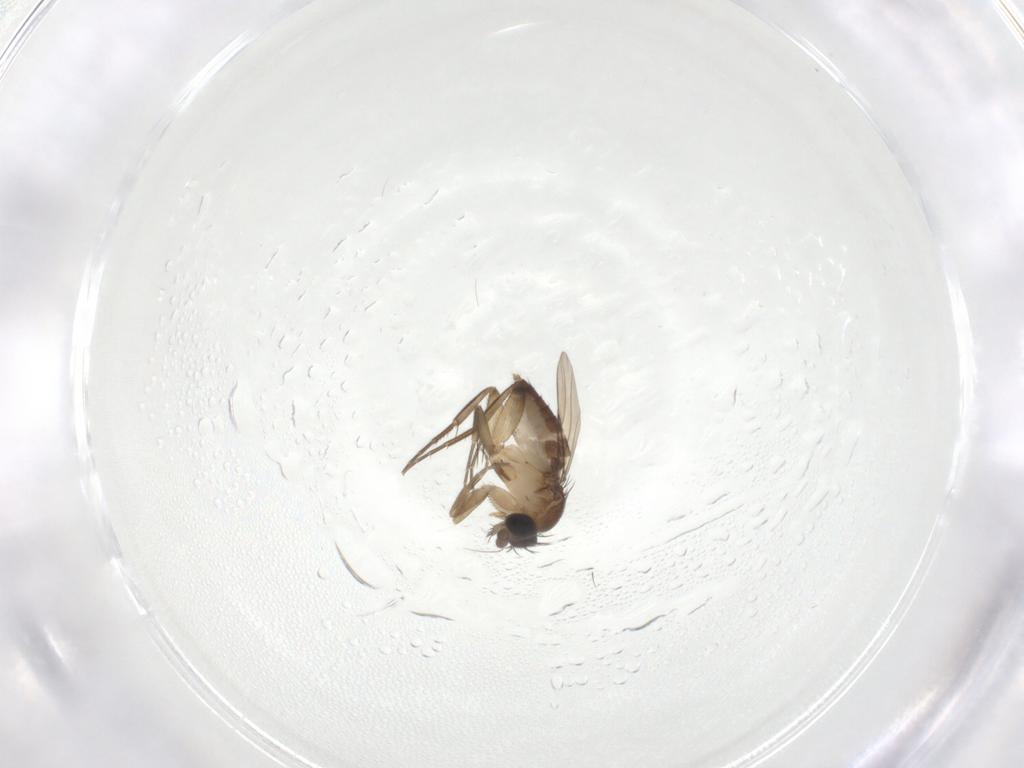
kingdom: Animalia
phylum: Arthropoda
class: Insecta
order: Diptera
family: Phoridae
